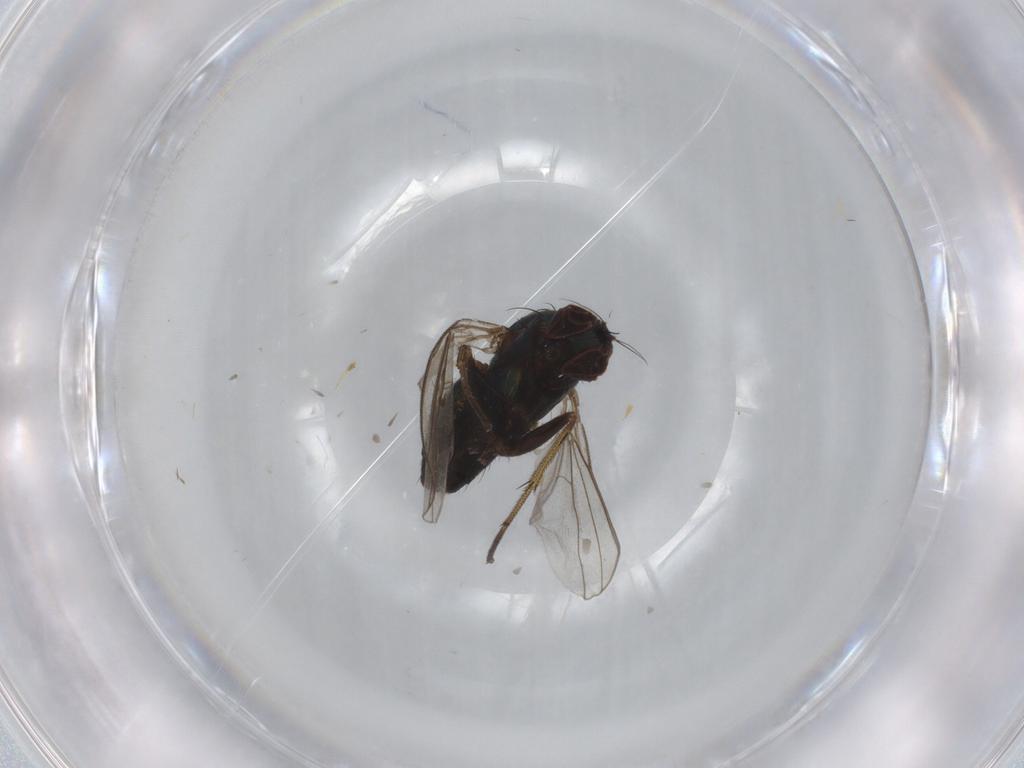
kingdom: Animalia
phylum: Arthropoda
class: Insecta
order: Diptera
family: Dolichopodidae
